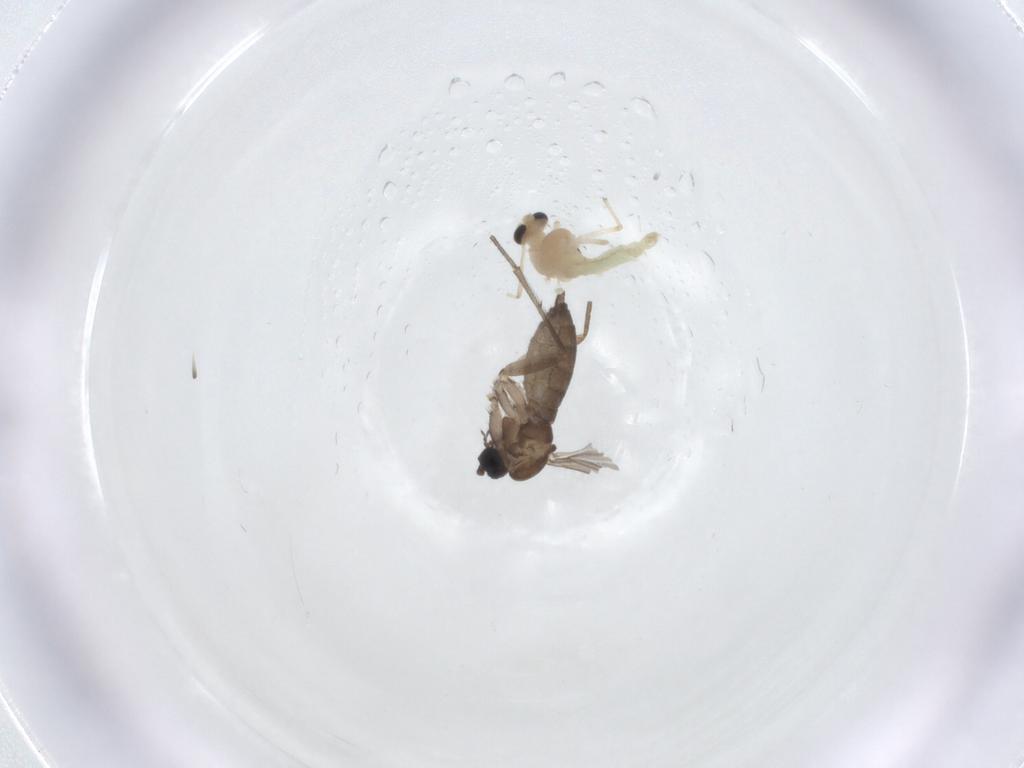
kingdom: Animalia
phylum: Arthropoda
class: Insecta
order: Diptera
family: Chironomidae
